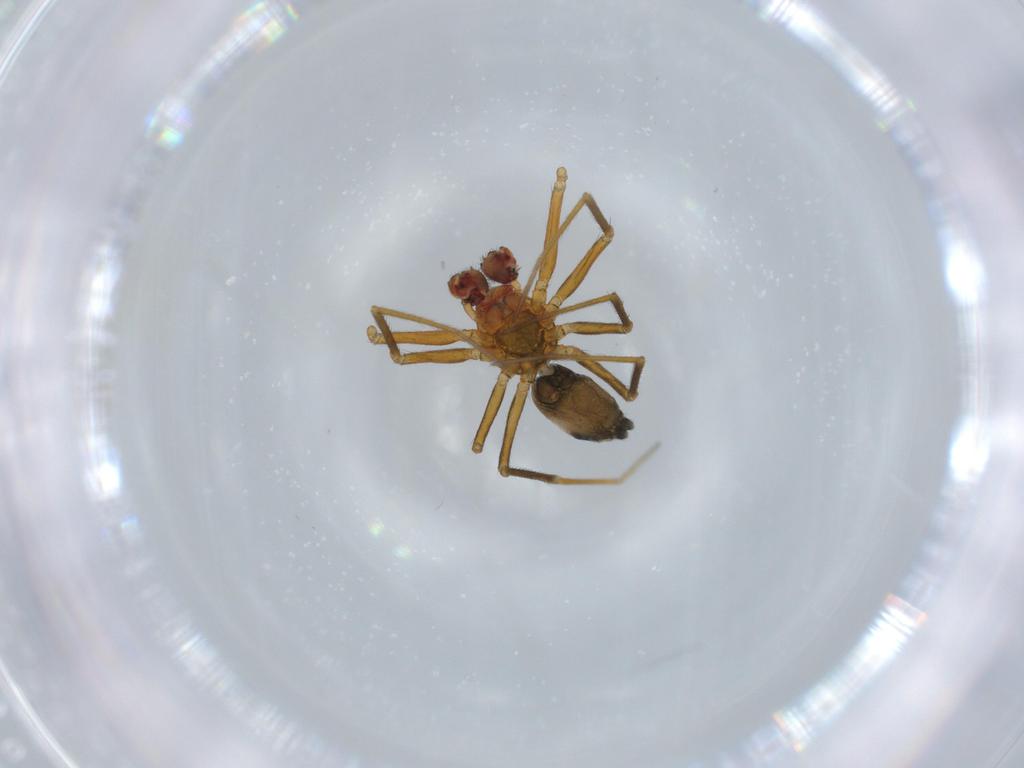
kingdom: Animalia
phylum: Arthropoda
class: Arachnida
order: Araneae
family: Linyphiidae
